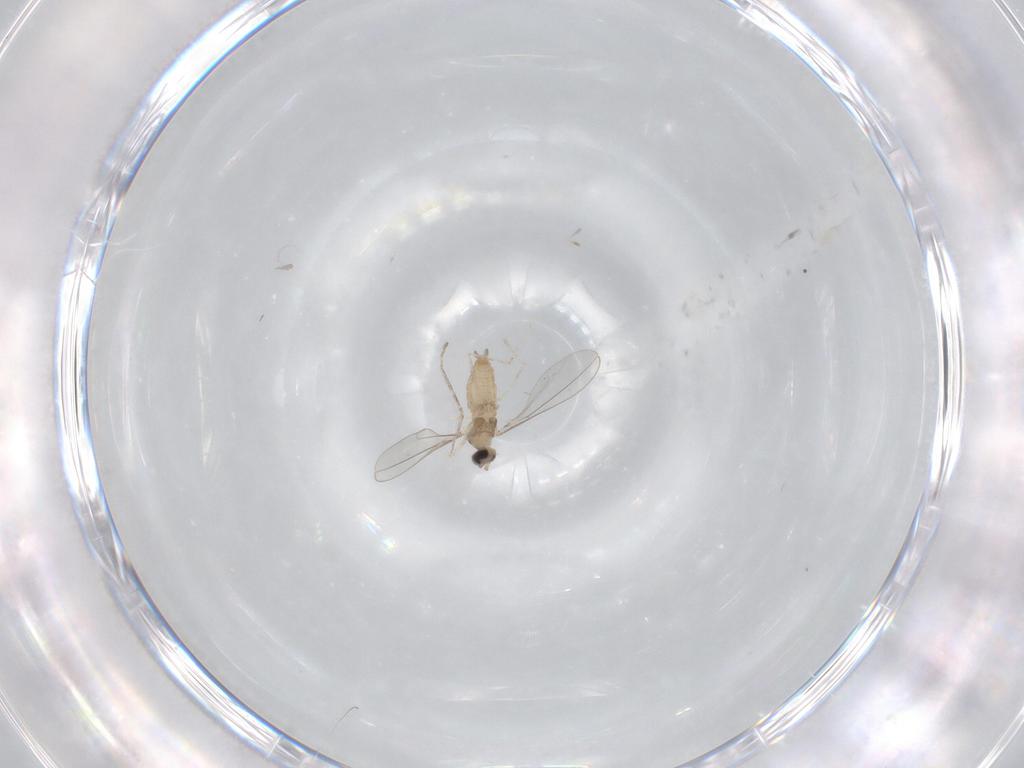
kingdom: Animalia
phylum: Arthropoda
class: Insecta
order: Diptera
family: Cecidomyiidae
